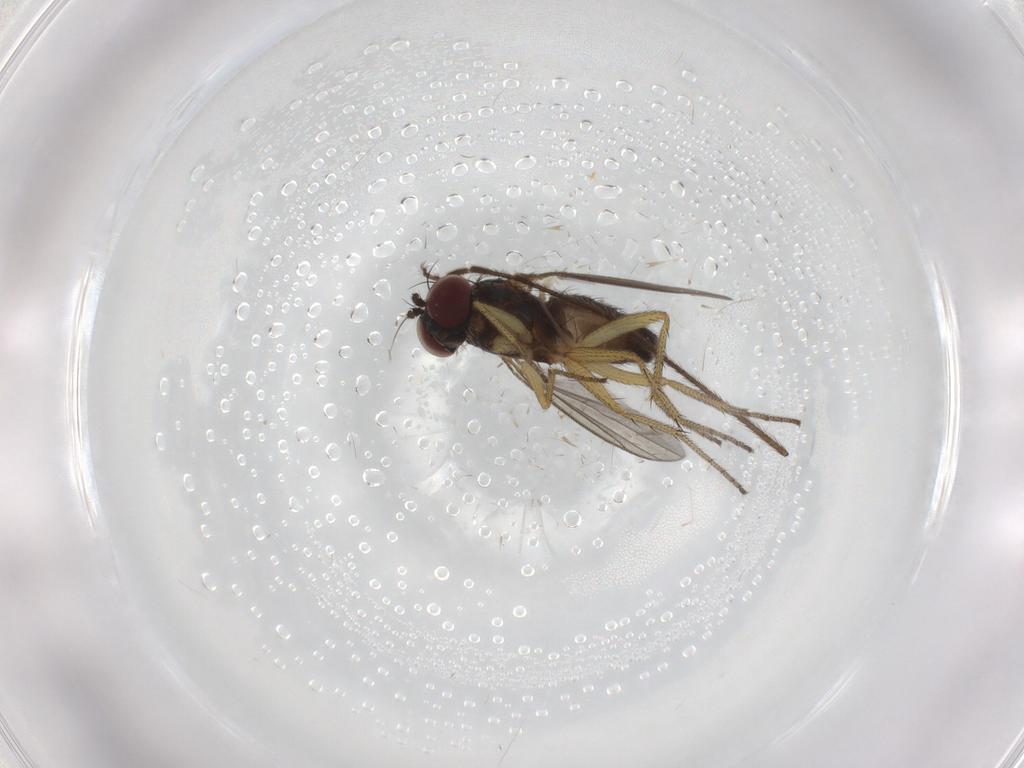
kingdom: Animalia
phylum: Arthropoda
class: Insecta
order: Diptera
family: Dolichopodidae
